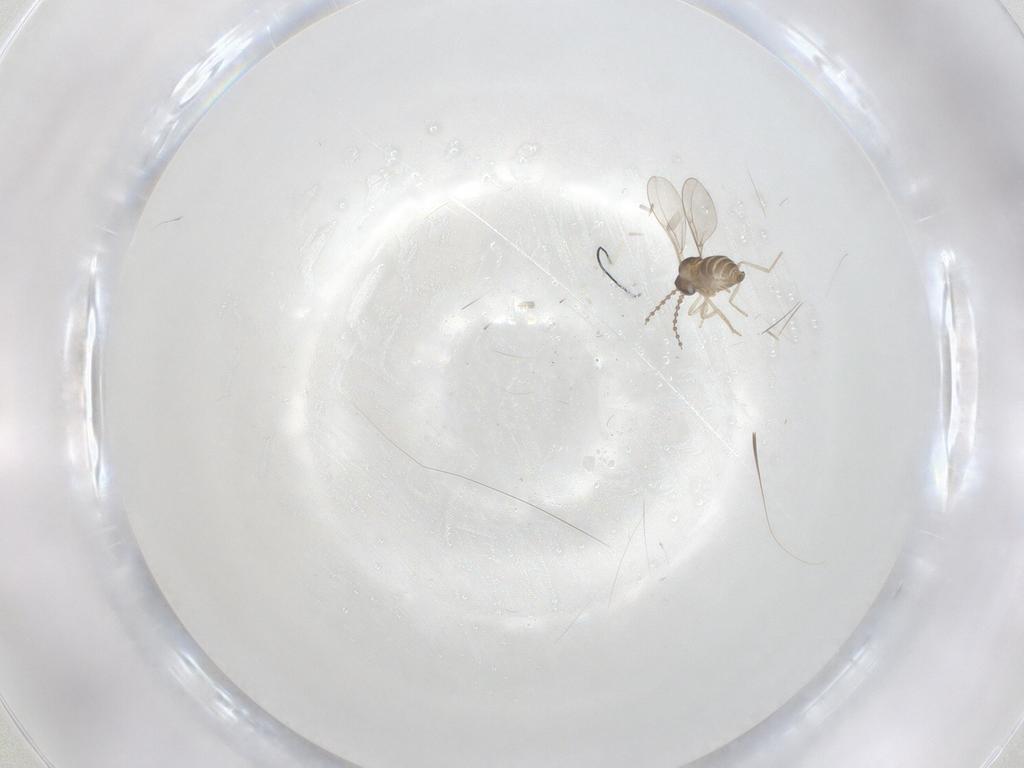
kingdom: Animalia
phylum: Arthropoda
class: Insecta
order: Diptera
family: Cecidomyiidae
